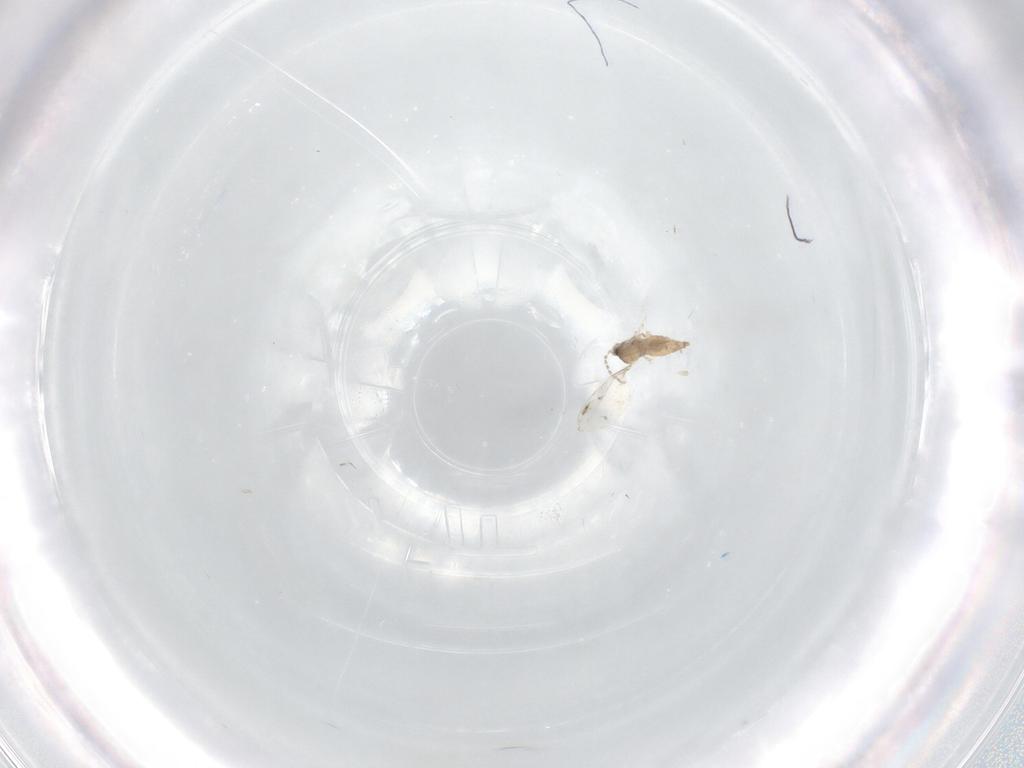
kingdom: Animalia
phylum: Arthropoda
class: Insecta
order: Diptera
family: Cecidomyiidae
